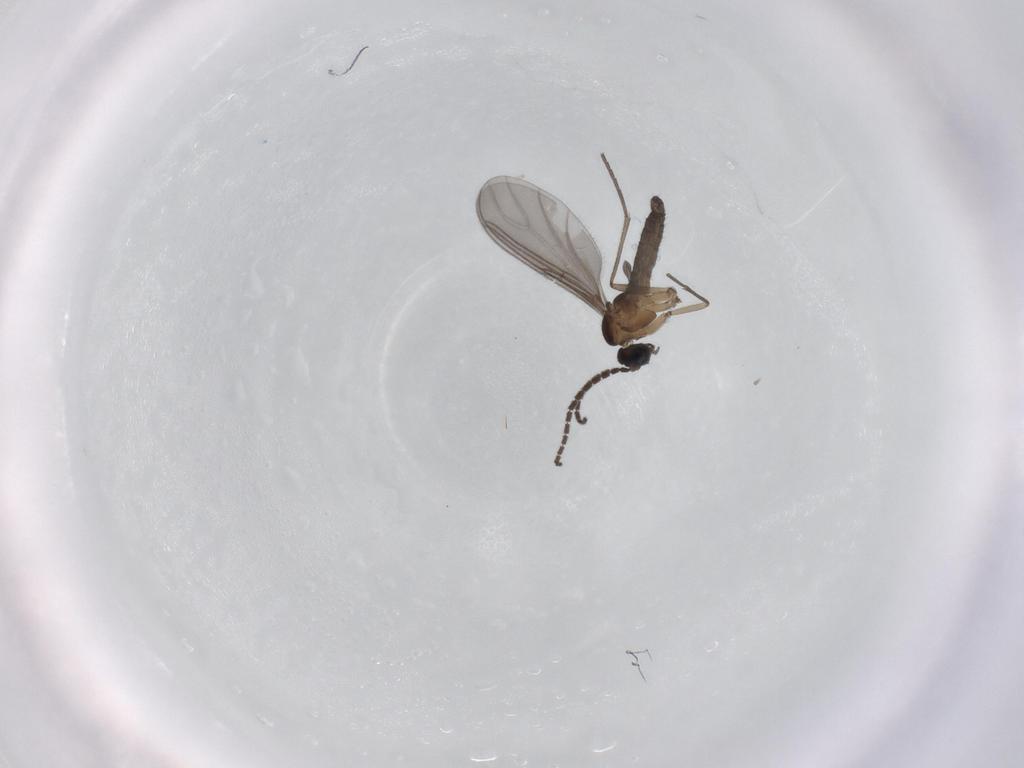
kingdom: Animalia
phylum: Arthropoda
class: Insecta
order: Diptera
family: Sciaridae
